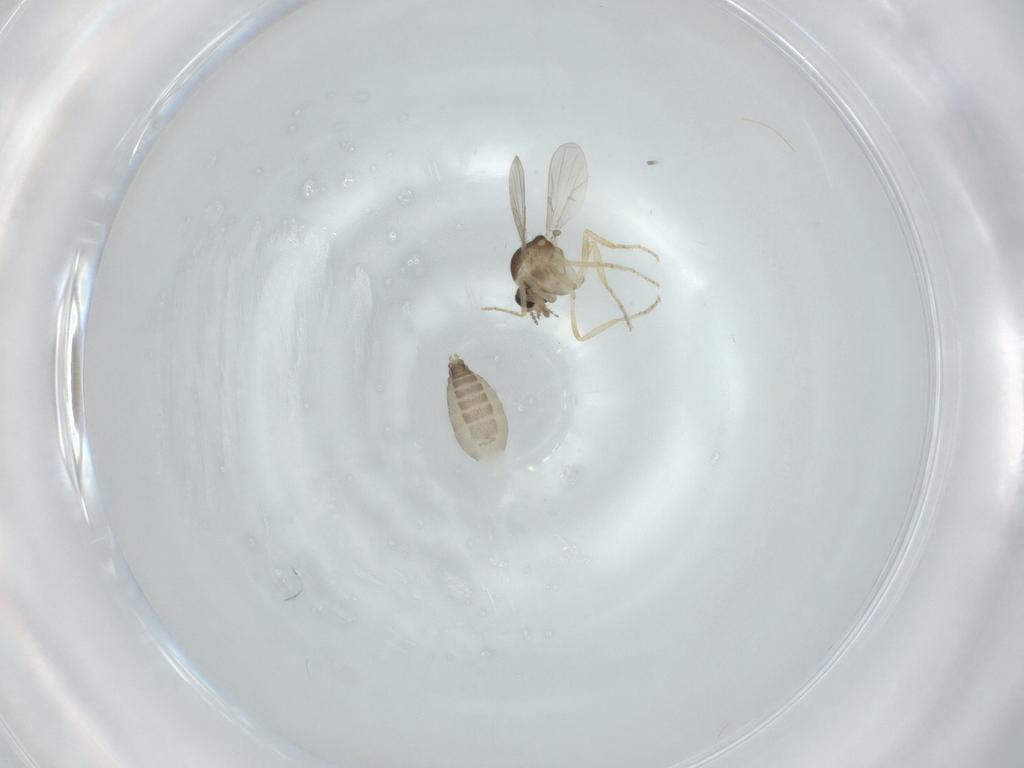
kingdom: Animalia
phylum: Arthropoda
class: Insecta
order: Diptera
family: Ceratopogonidae
